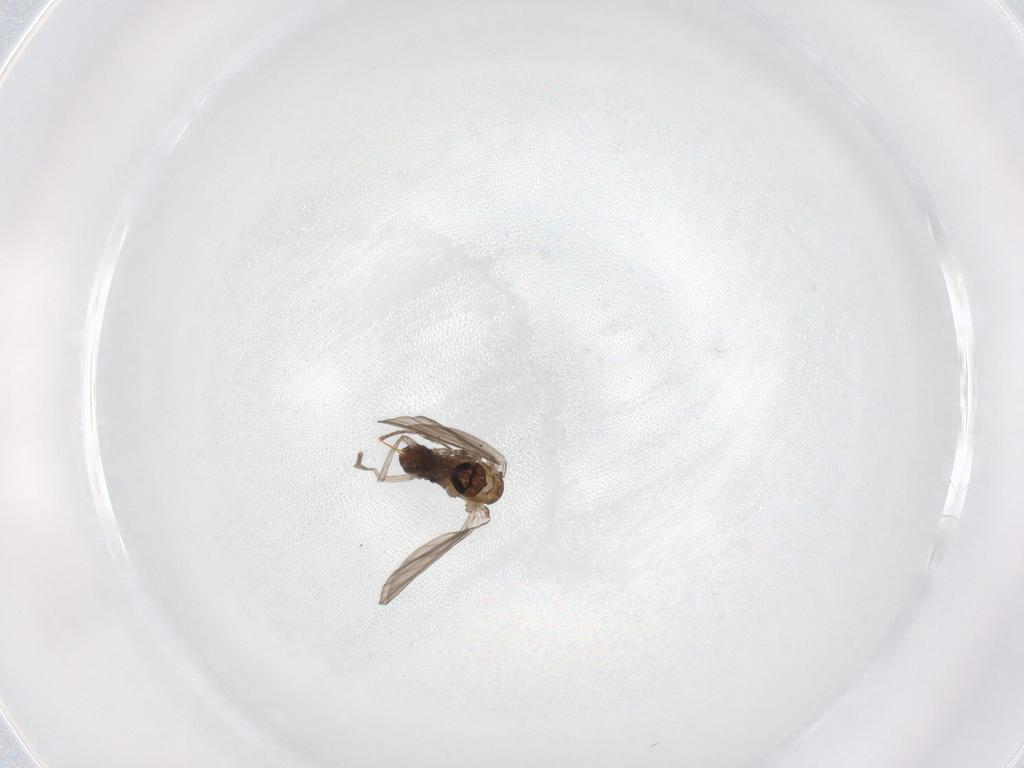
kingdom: Animalia
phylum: Arthropoda
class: Insecta
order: Diptera
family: Psychodidae
